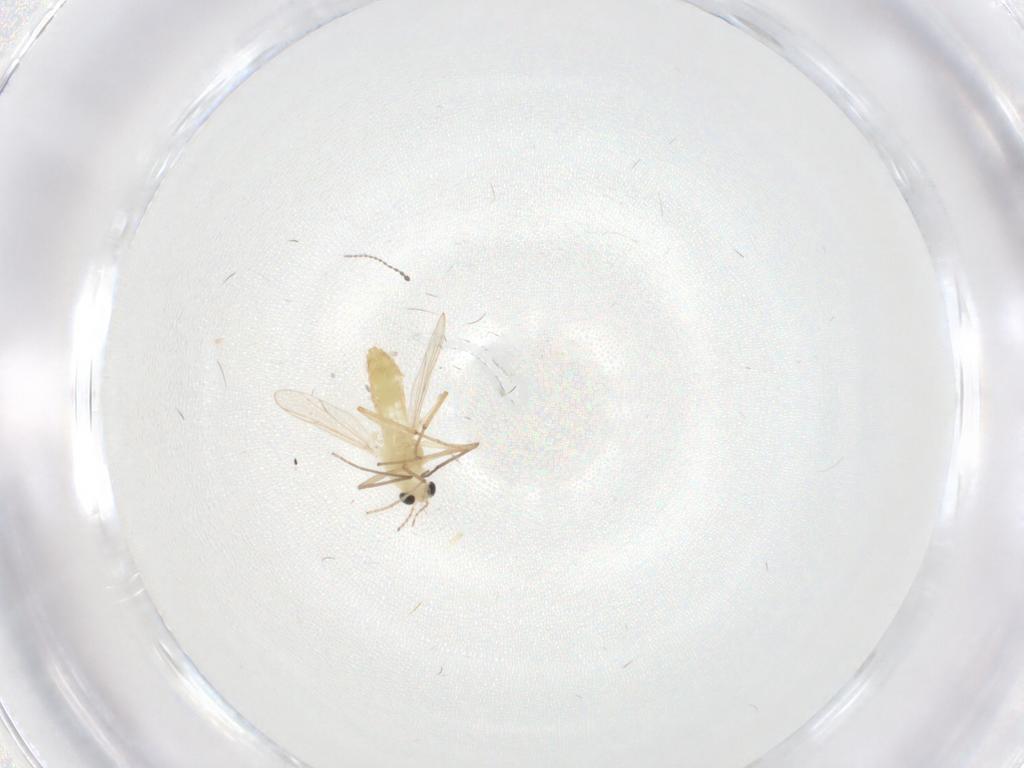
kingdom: Animalia
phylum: Arthropoda
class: Insecta
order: Diptera
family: Chironomidae
